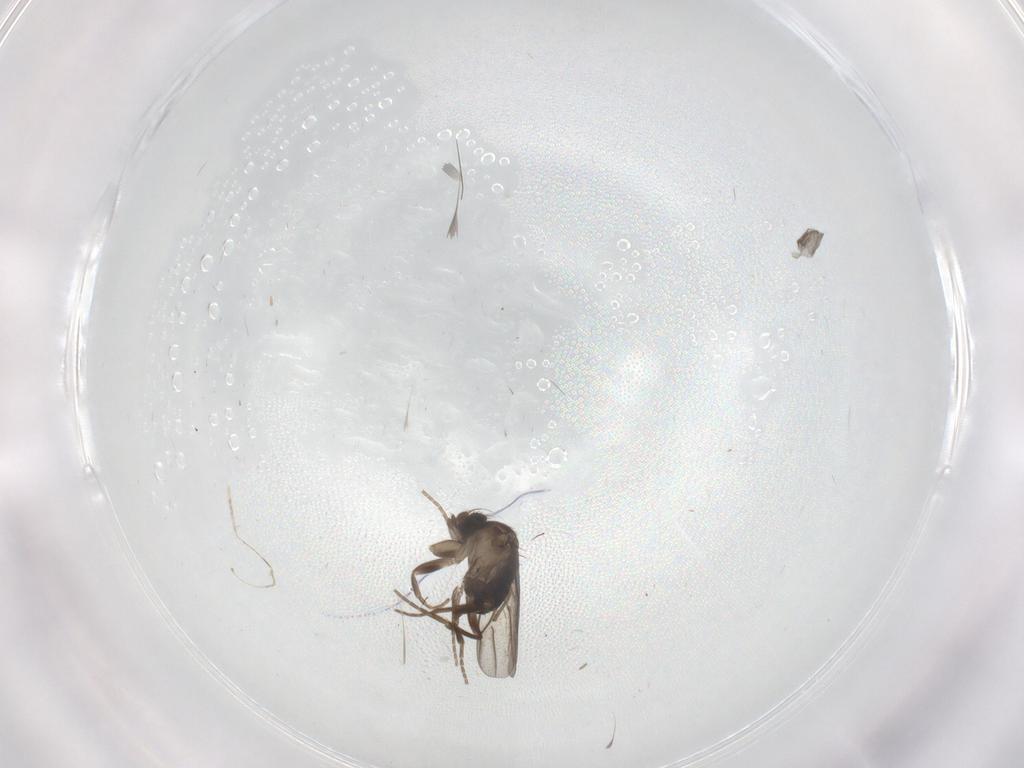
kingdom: Animalia
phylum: Arthropoda
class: Insecta
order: Diptera
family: Phoridae
